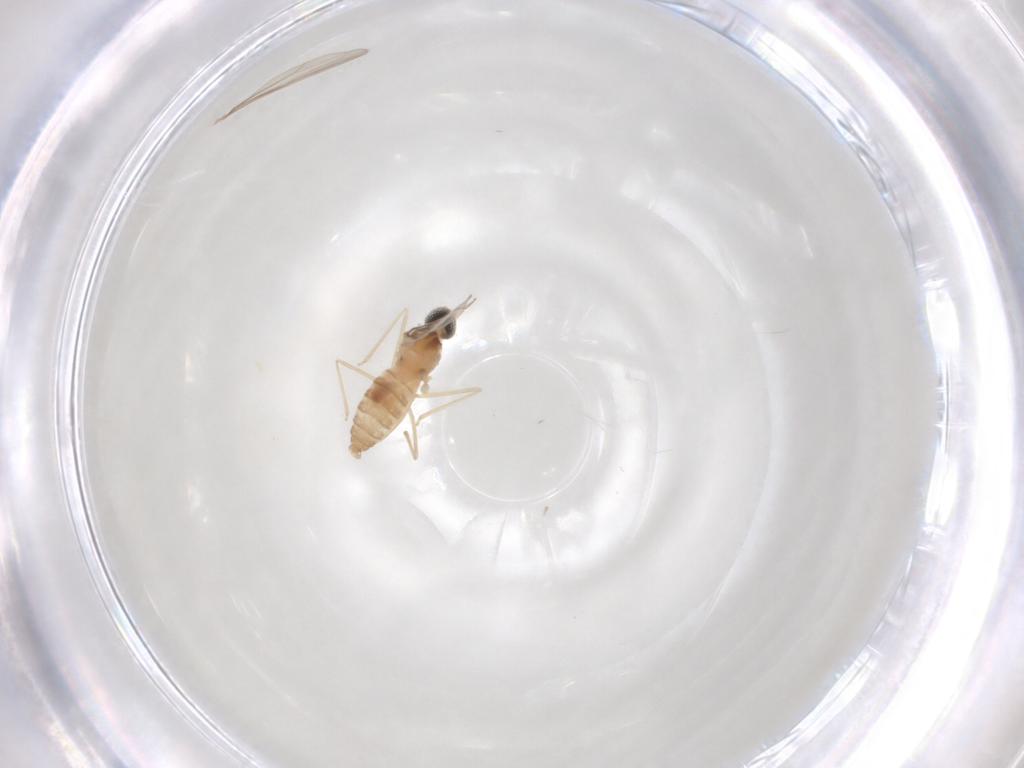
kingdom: Animalia
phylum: Arthropoda
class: Insecta
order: Diptera
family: Cecidomyiidae
